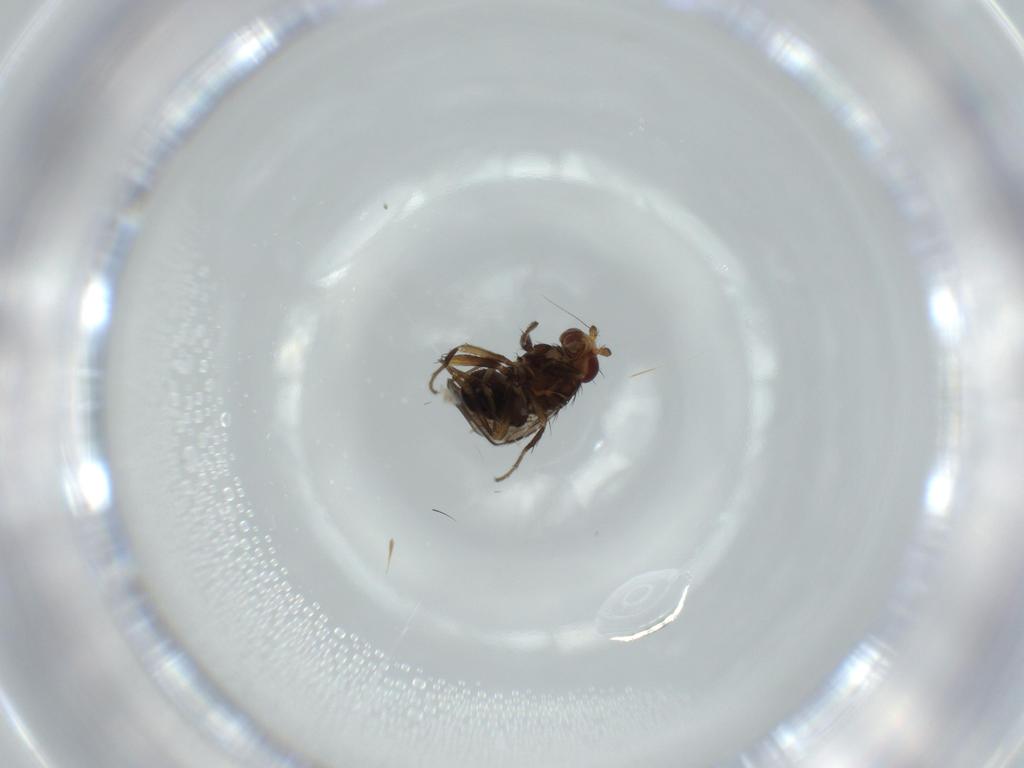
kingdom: Animalia
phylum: Arthropoda
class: Insecta
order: Diptera
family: Sphaeroceridae
